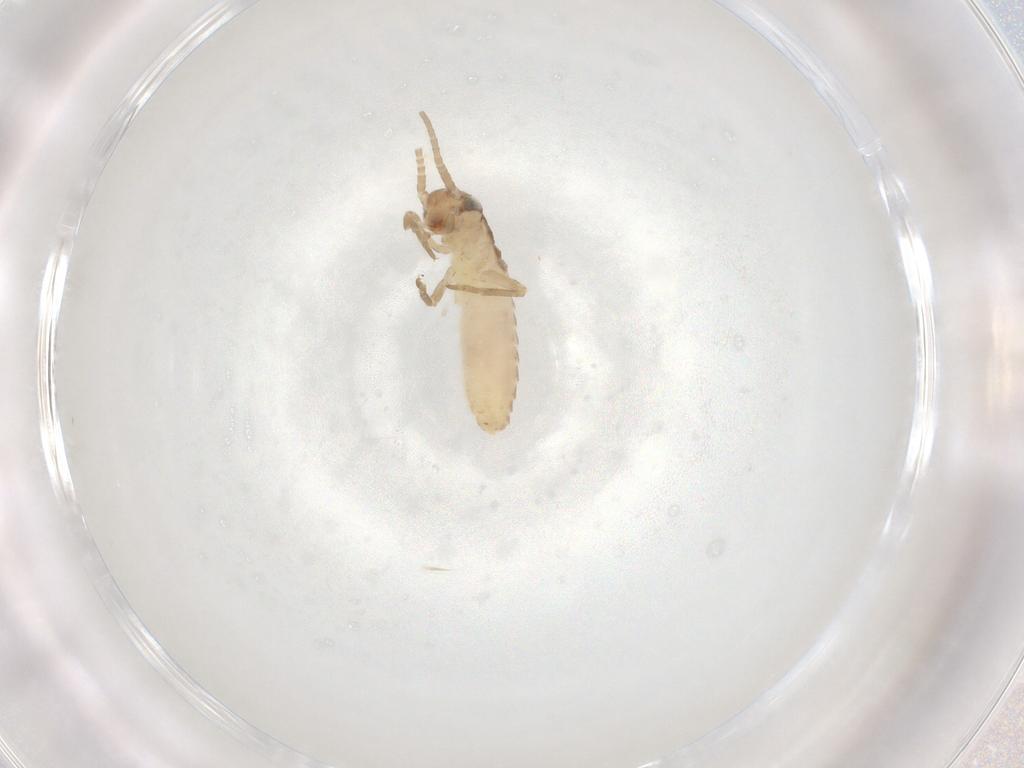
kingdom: Animalia
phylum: Arthropoda
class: Insecta
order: Orthoptera
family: Gryllidae
